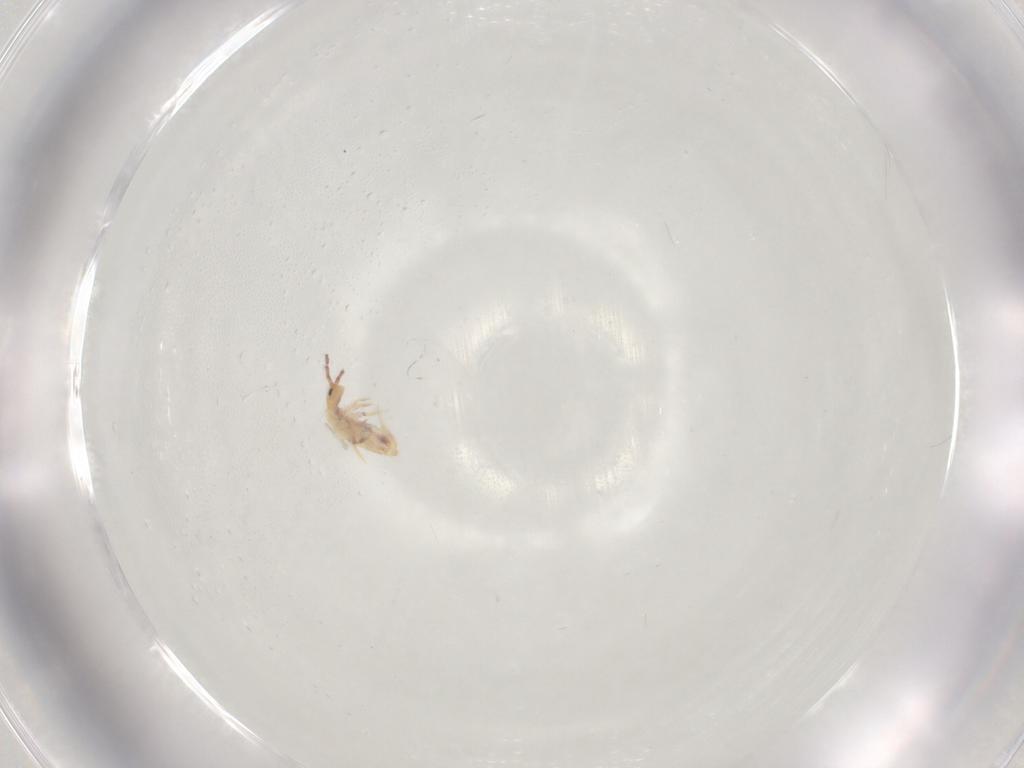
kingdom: Animalia
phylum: Arthropoda
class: Collembola
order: Poduromorpha
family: Hypogastruridae
